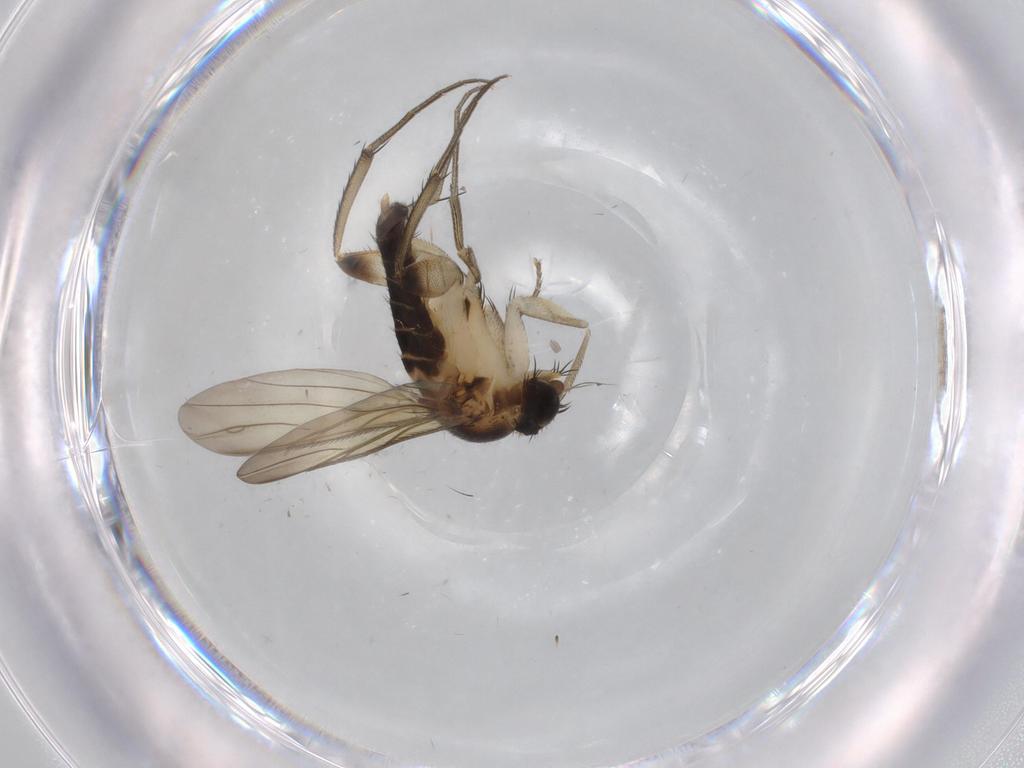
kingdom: Animalia
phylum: Arthropoda
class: Insecta
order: Diptera
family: Phoridae
